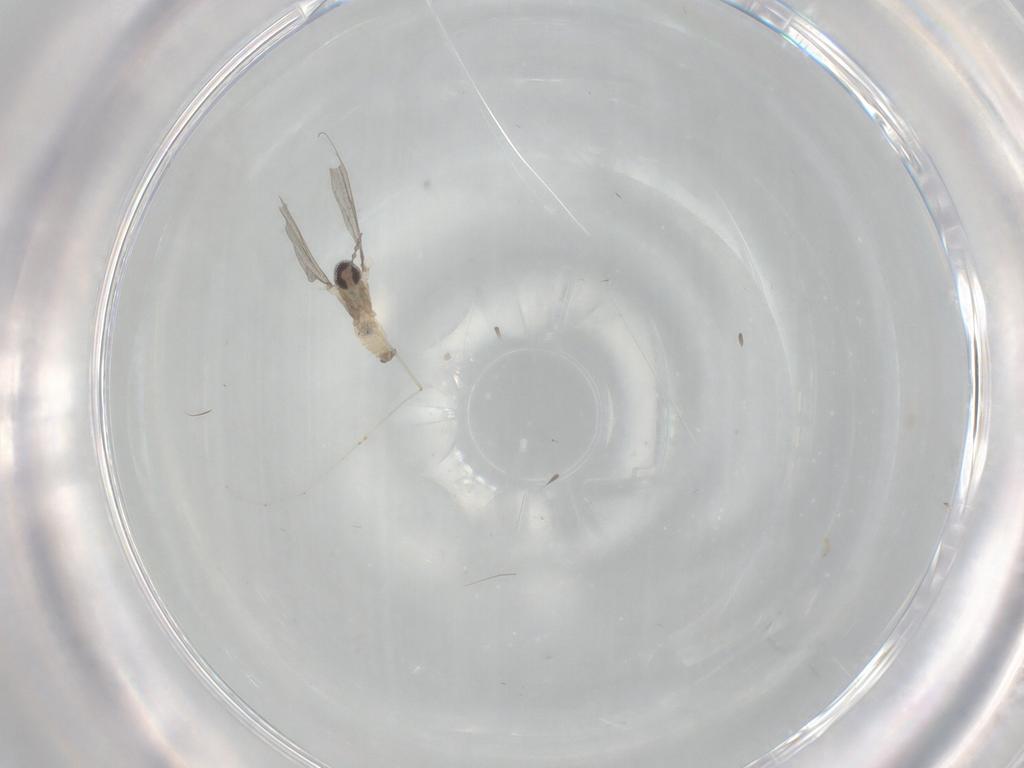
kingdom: Animalia
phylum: Arthropoda
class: Insecta
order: Diptera
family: Cecidomyiidae
